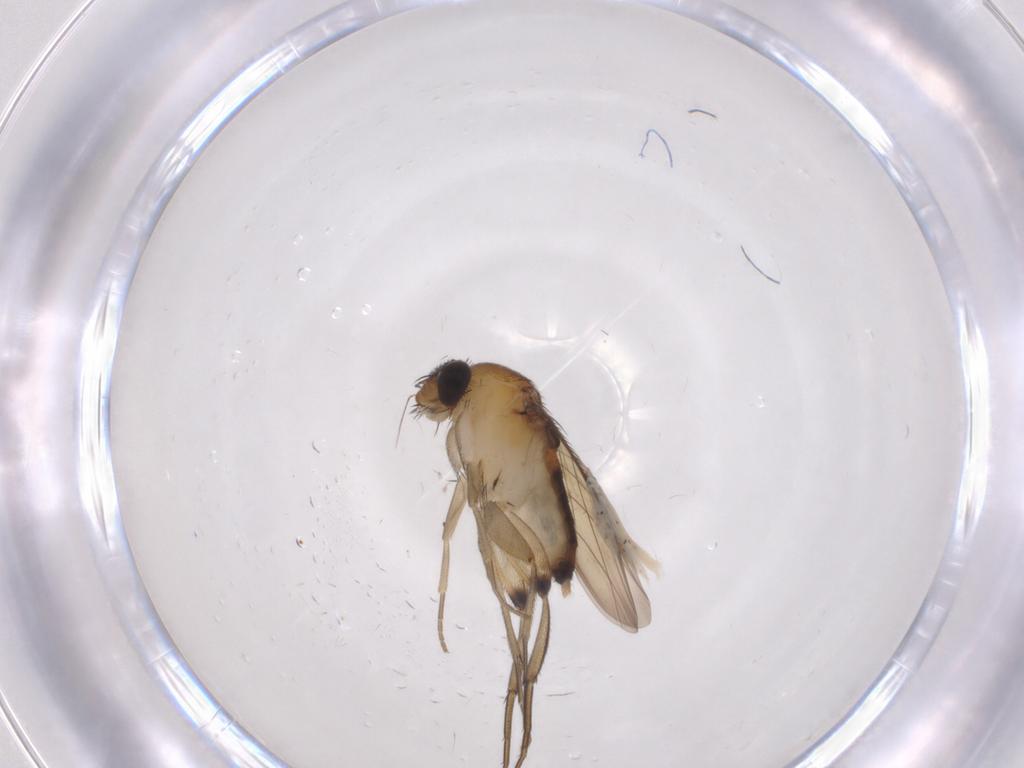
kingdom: Animalia
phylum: Arthropoda
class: Insecta
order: Diptera
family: Phoridae
